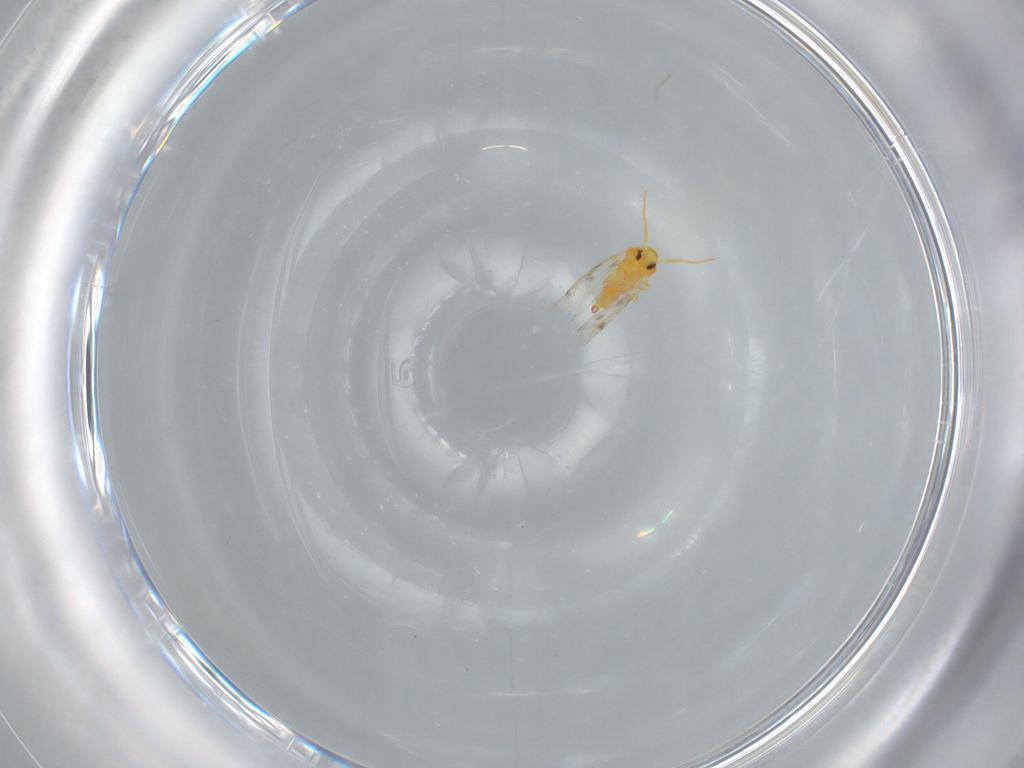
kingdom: Animalia
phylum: Arthropoda
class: Insecta
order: Hemiptera
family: Aleyrodidae
